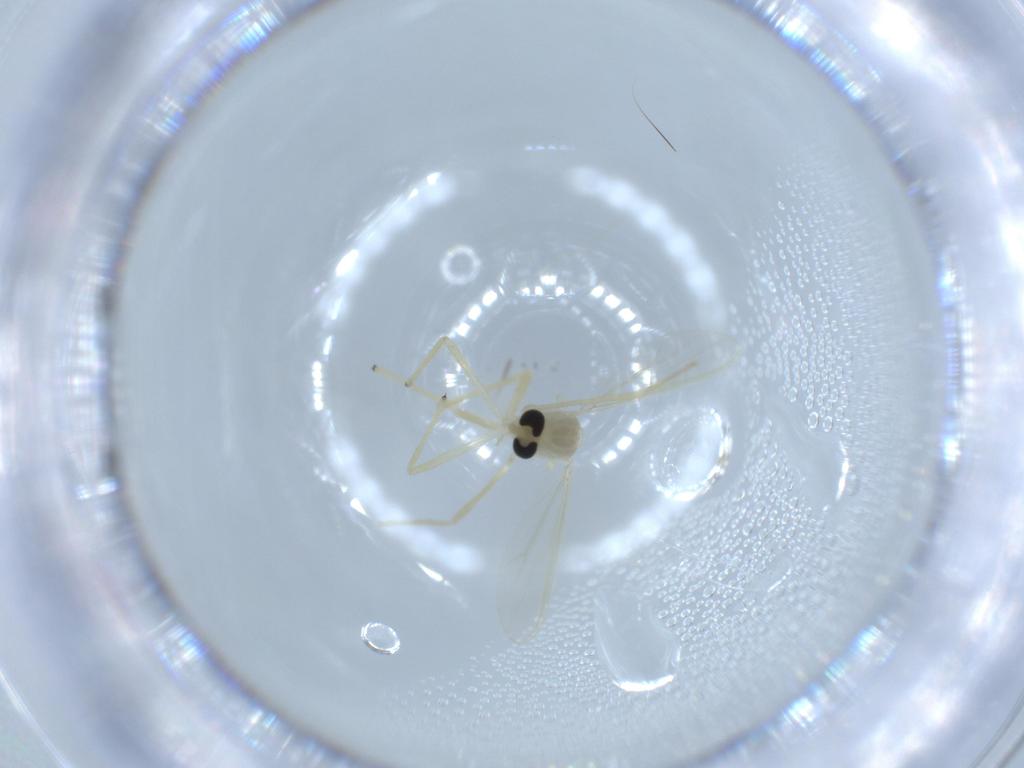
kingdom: Animalia
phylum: Arthropoda
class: Insecta
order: Diptera
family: Chironomidae
